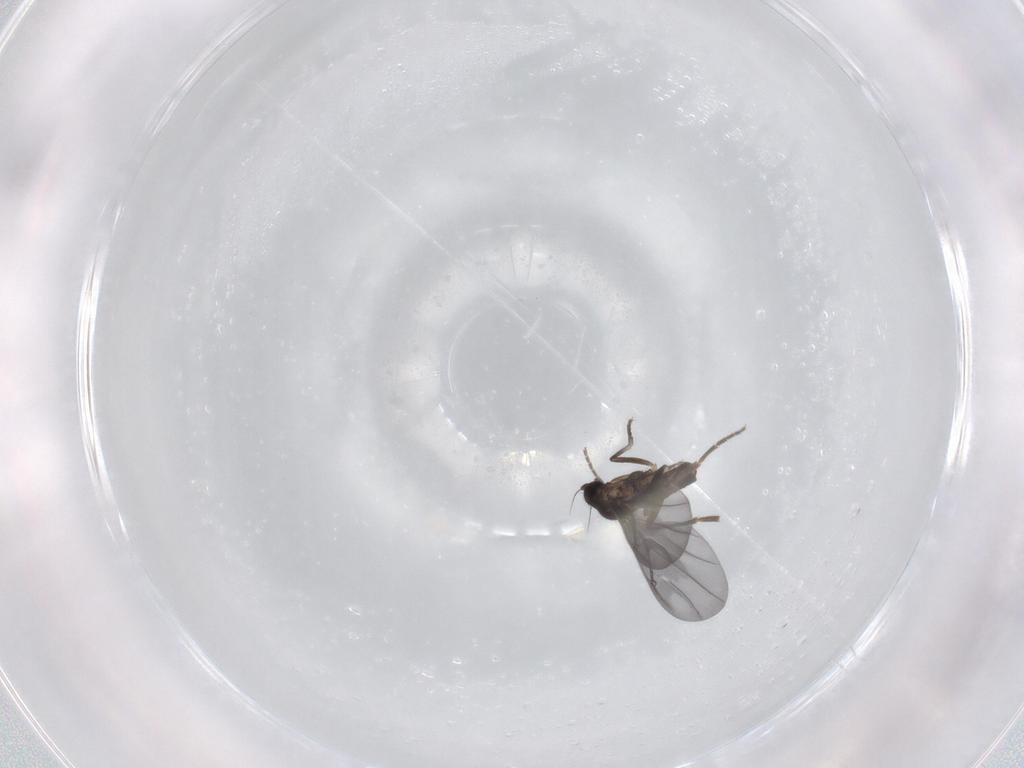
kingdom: Animalia
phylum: Arthropoda
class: Insecta
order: Diptera
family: Phoridae
